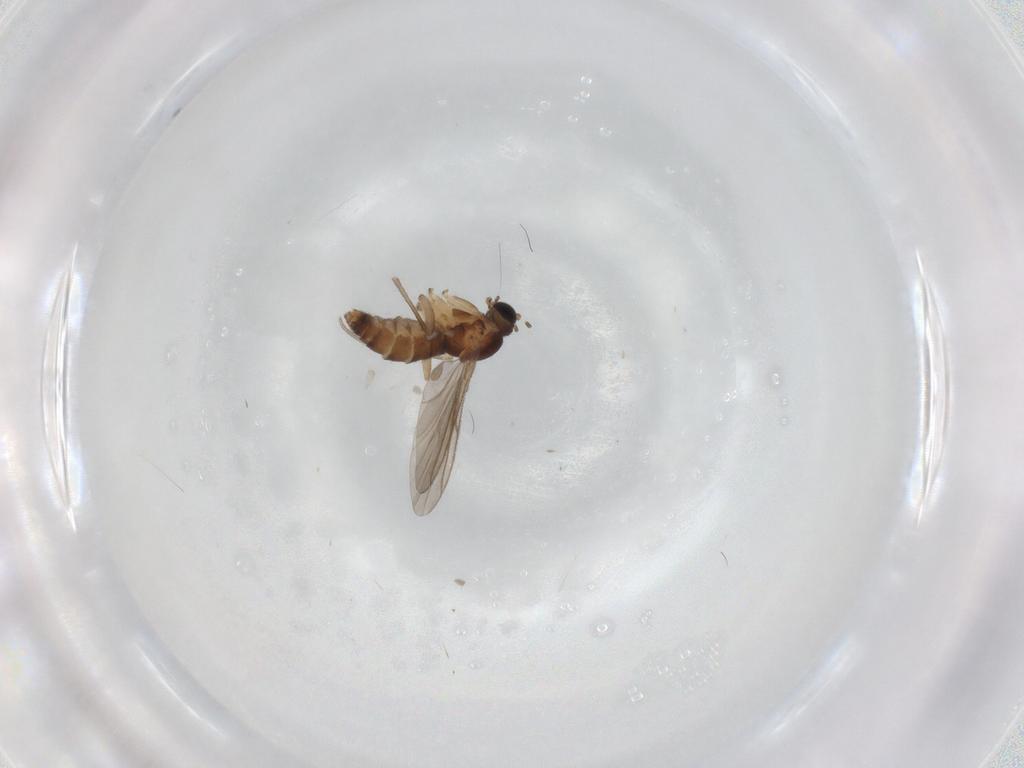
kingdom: Animalia
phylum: Arthropoda
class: Insecta
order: Diptera
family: Sciaridae
